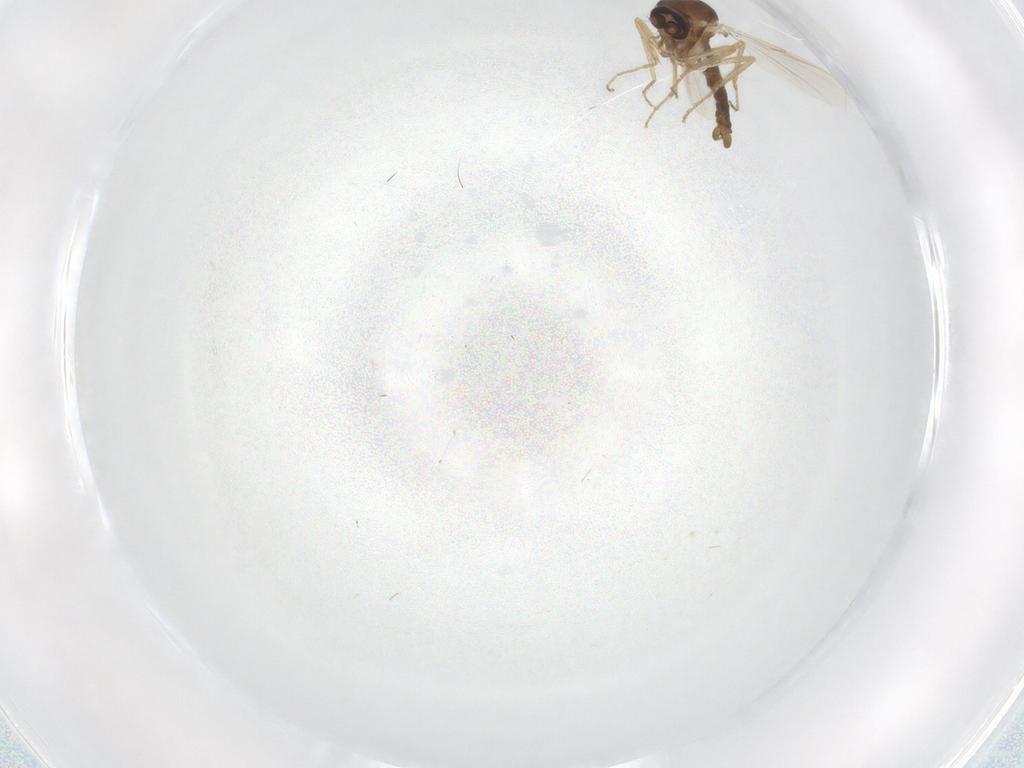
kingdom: Animalia
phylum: Arthropoda
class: Insecta
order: Diptera
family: Ceratopogonidae
